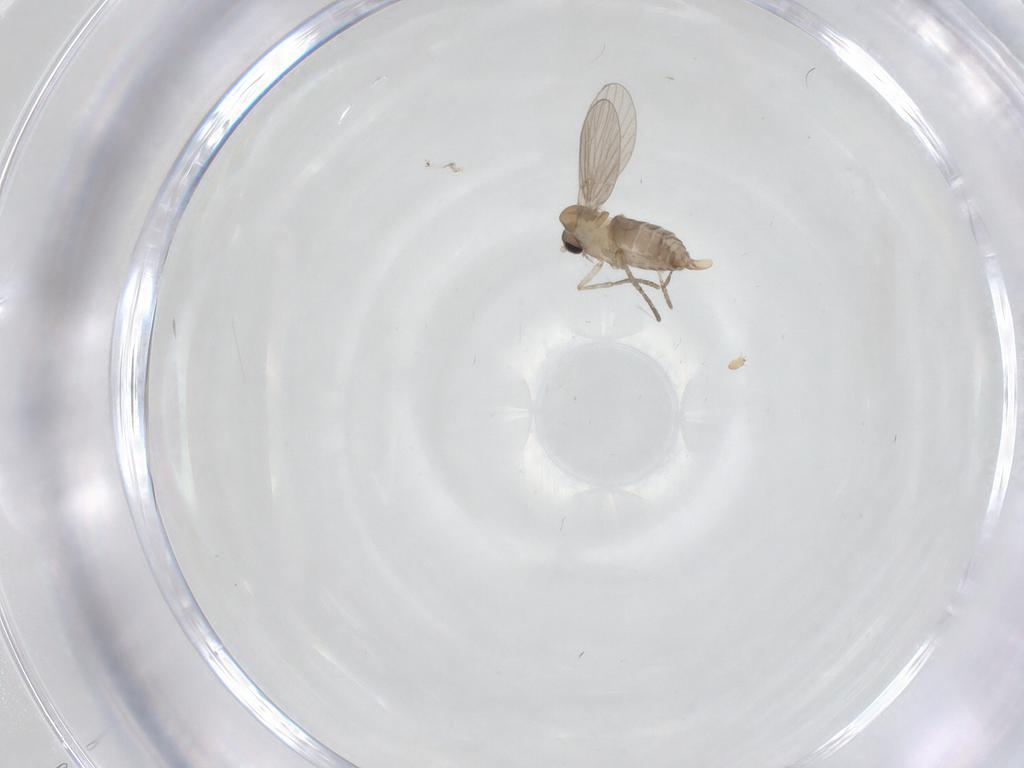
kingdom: Animalia
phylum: Arthropoda
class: Insecta
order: Diptera
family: Psychodidae
